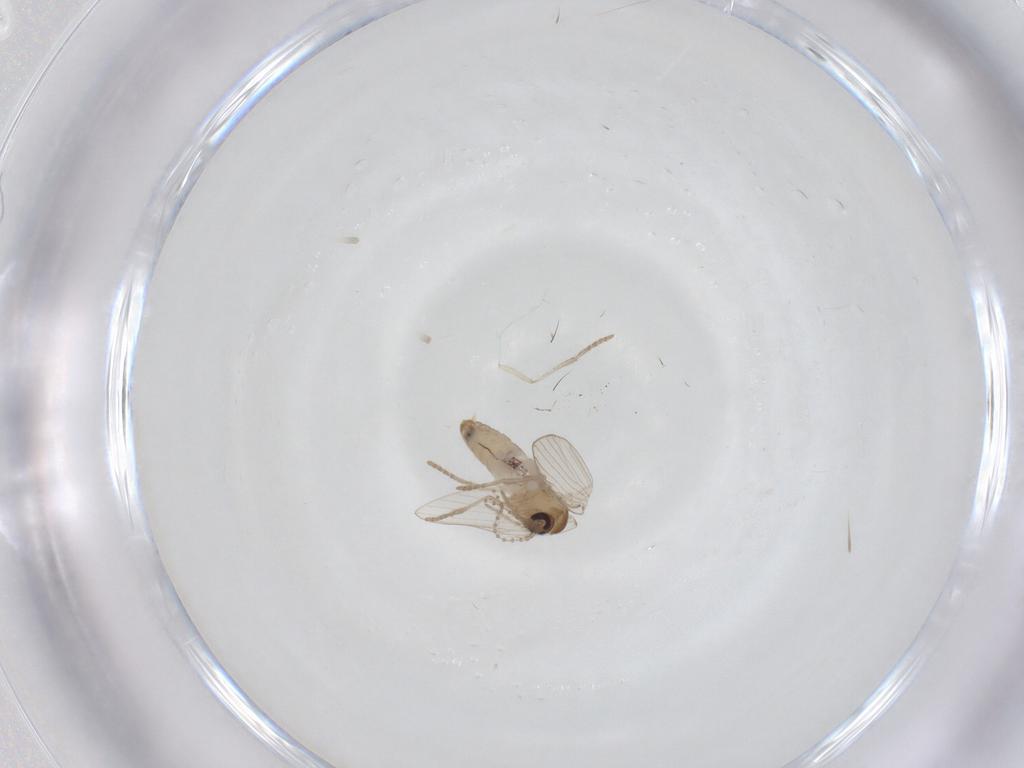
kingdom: Animalia
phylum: Arthropoda
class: Insecta
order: Diptera
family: Psychodidae
